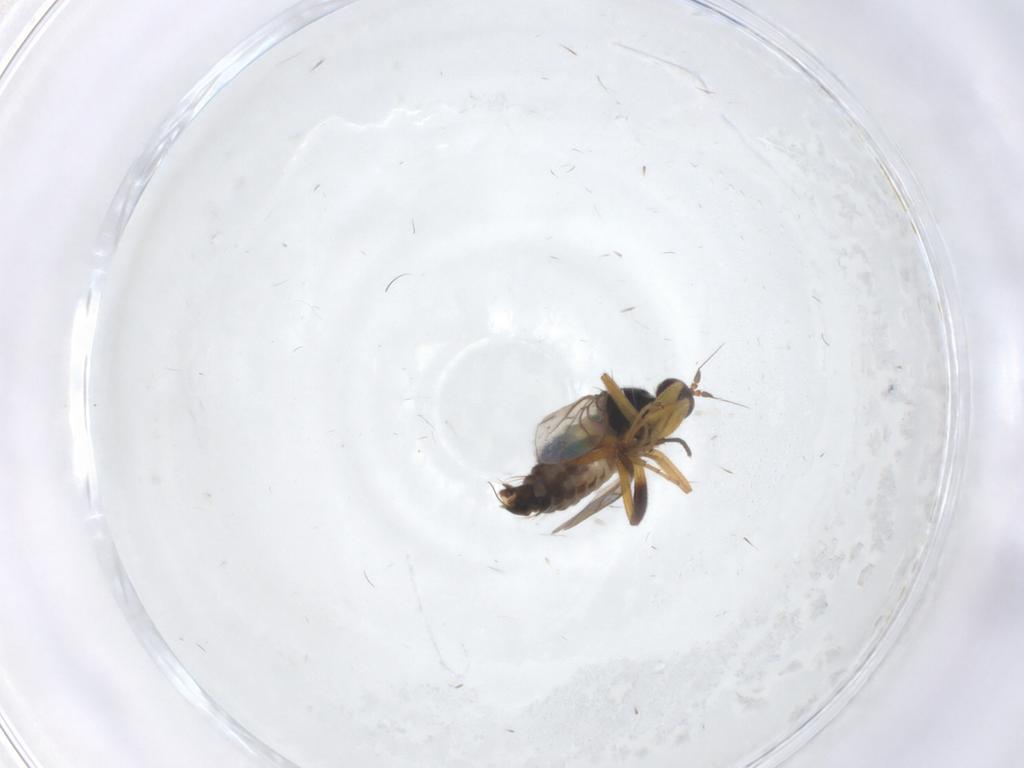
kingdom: Animalia
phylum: Arthropoda
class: Insecta
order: Diptera
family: Hybotidae
